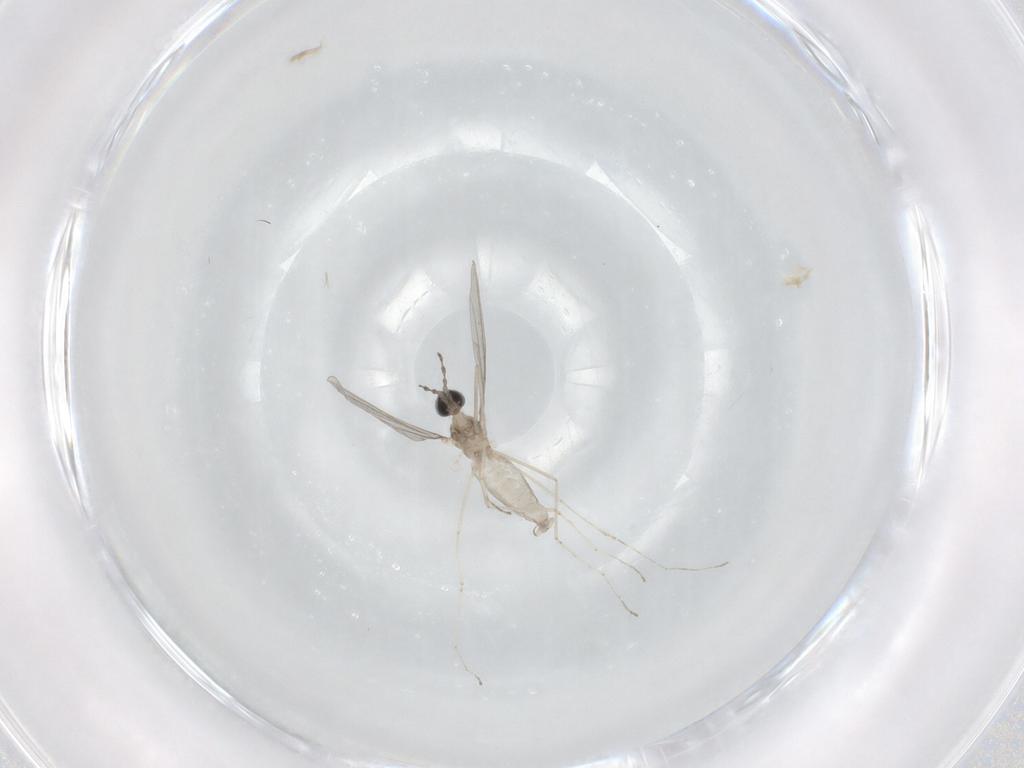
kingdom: Animalia
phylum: Arthropoda
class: Insecta
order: Diptera
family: Cecidomyiidae
